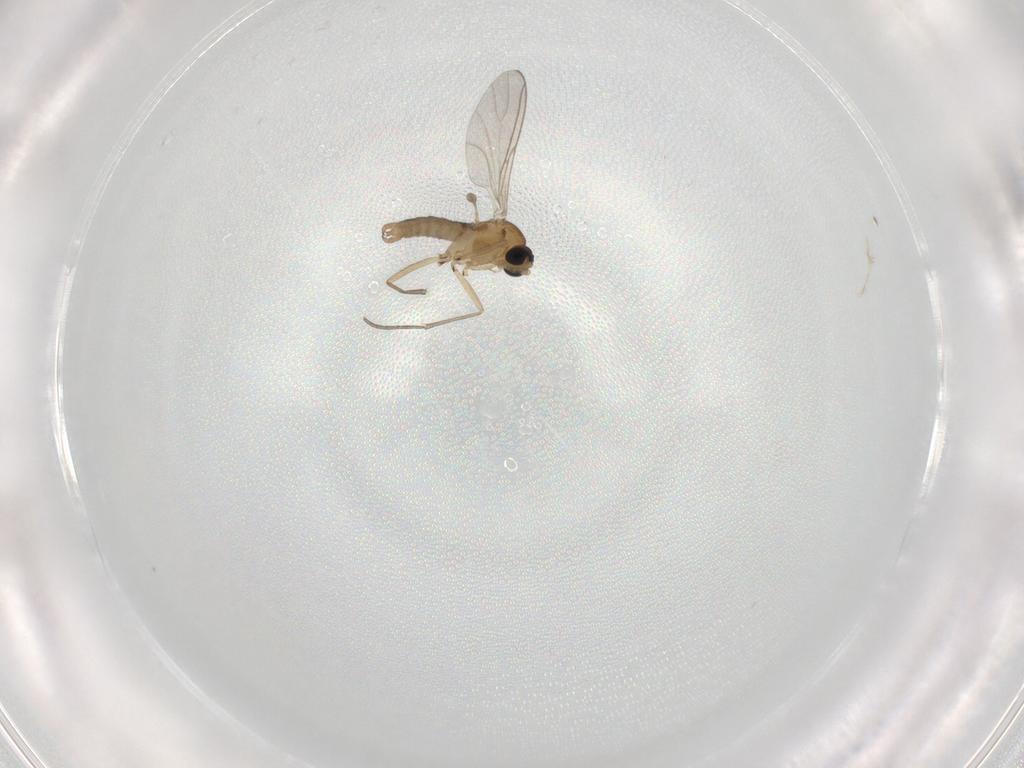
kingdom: Animalia
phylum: Arthropoda
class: Insecta
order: Diptera
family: Sciaridae
